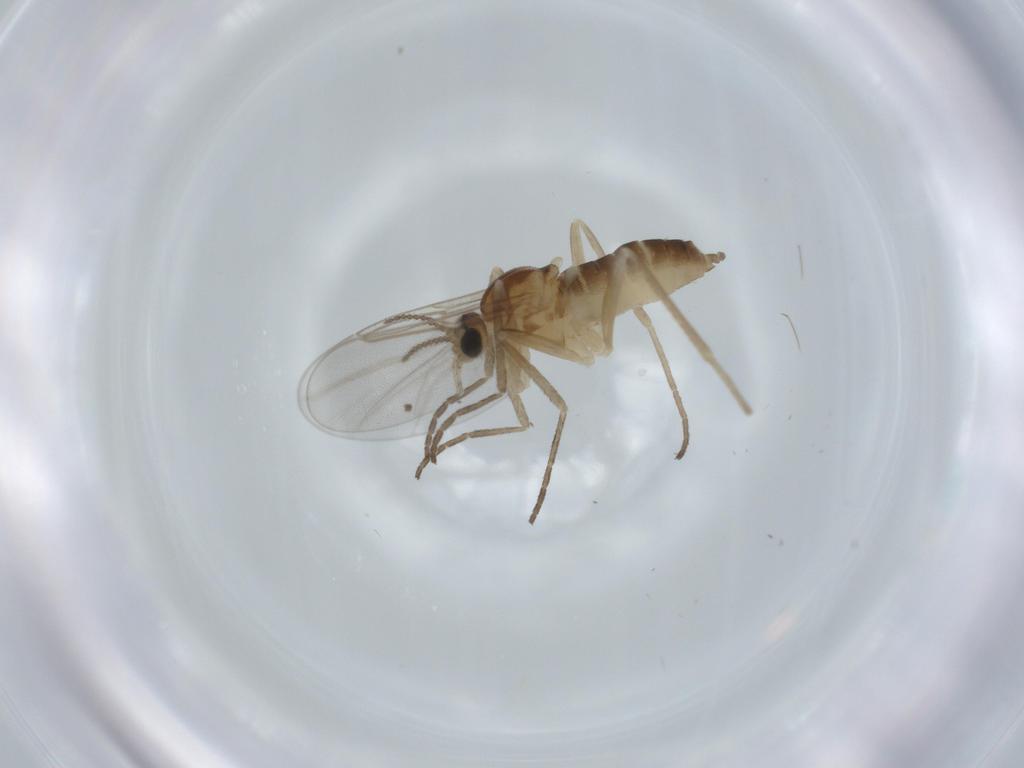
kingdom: Animalia
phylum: Arthropoda
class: Insecta
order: Diptera
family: Cecidomyiidae
